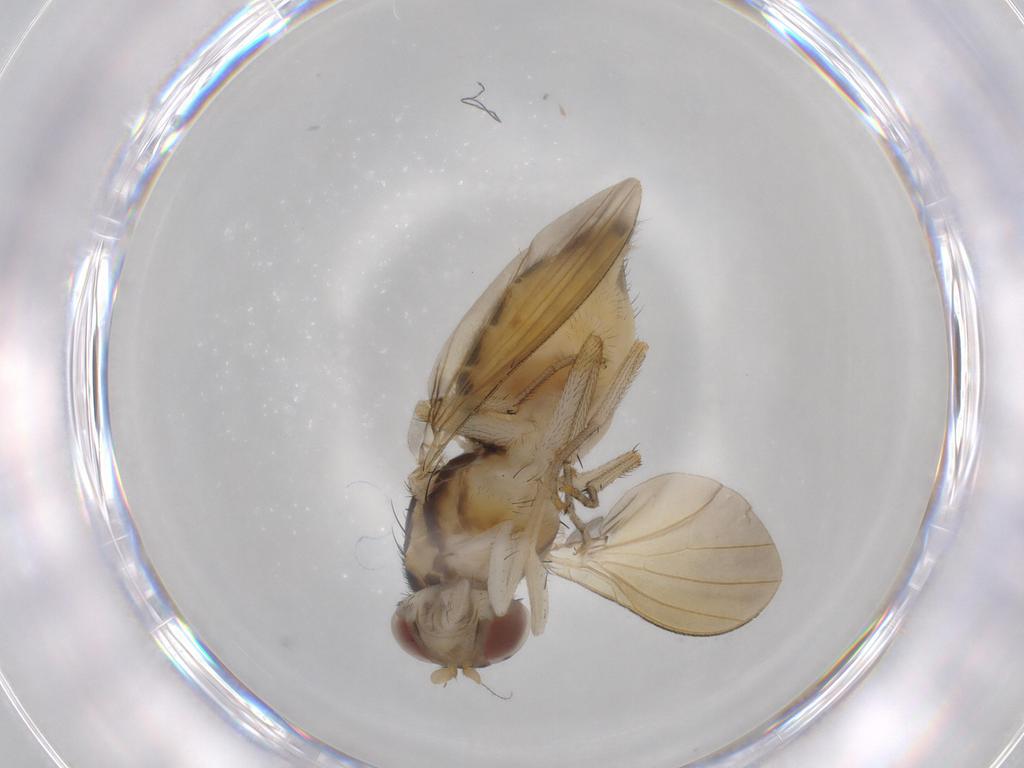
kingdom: Animalia
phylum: Arthropoda
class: Insecta
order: Diptera
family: Cecidomyiidae
